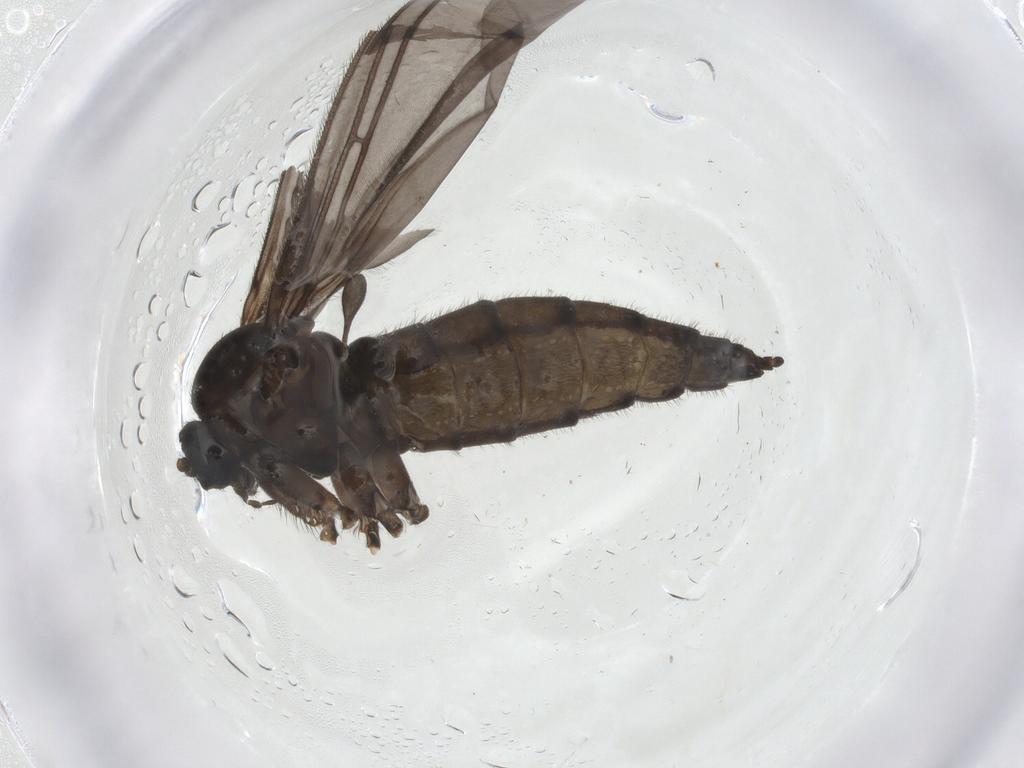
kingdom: Animalia
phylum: Arthropoda
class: Insecta
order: Diptera
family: Sciaridae
